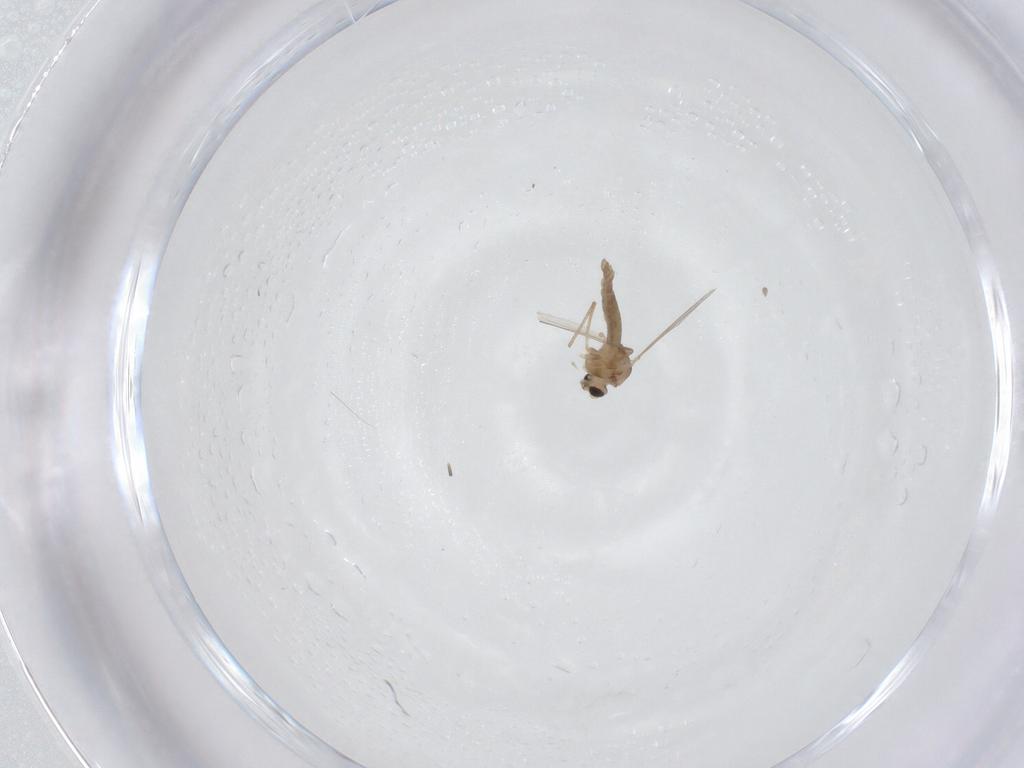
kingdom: Animalia
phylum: Arthropoda
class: Insecta
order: Diptera
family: Chironomidae
